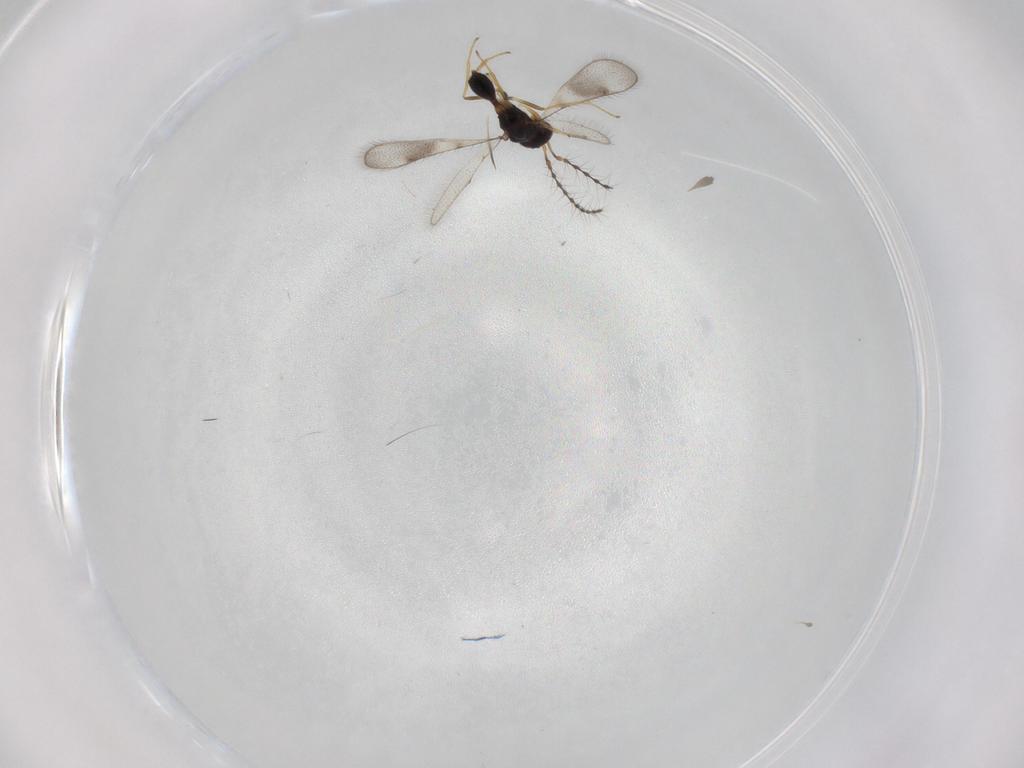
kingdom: Animalia
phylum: Arthropoda
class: Insecta
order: Hymenoptera
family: Diparidae
